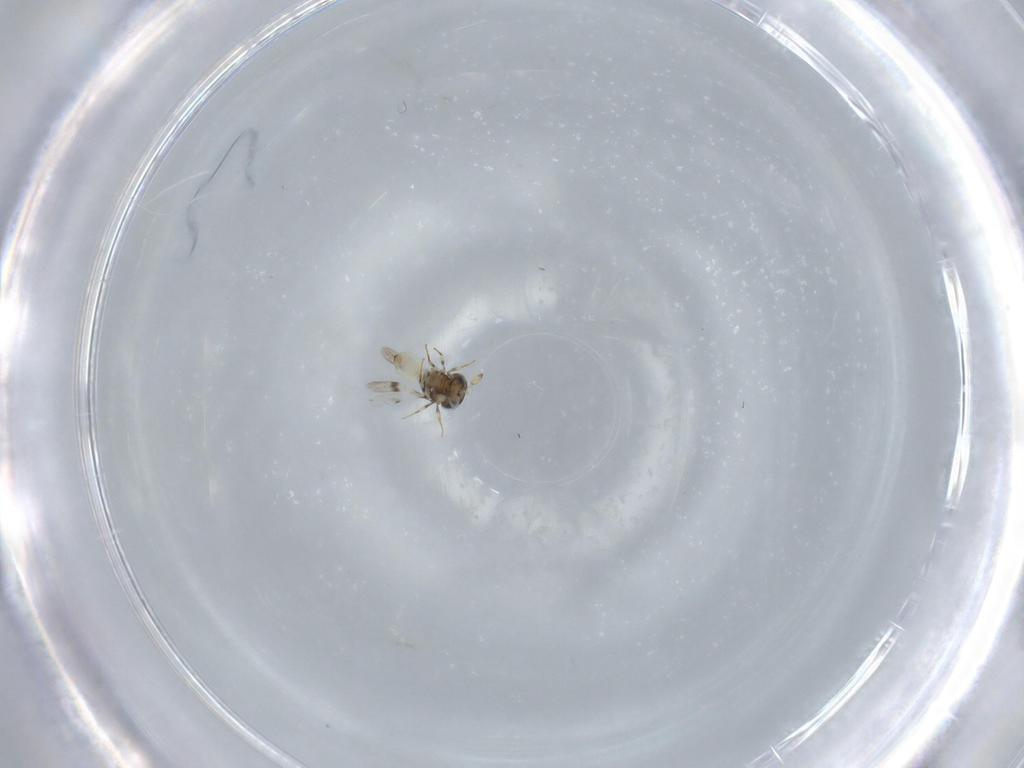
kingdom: Animalia
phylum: Arthropoda
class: Insecta
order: Hymenoptera
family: Scelionidae
